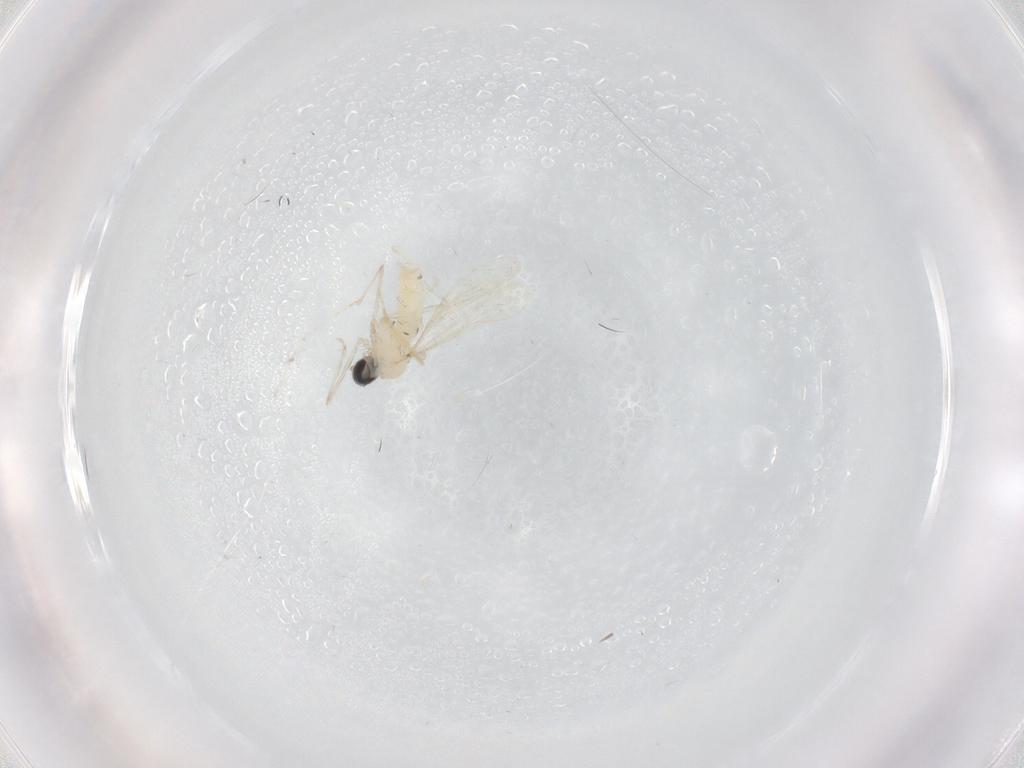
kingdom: Animalia
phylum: Arthropoda
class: Insecta
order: Diptera
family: Cecidomyiidae
